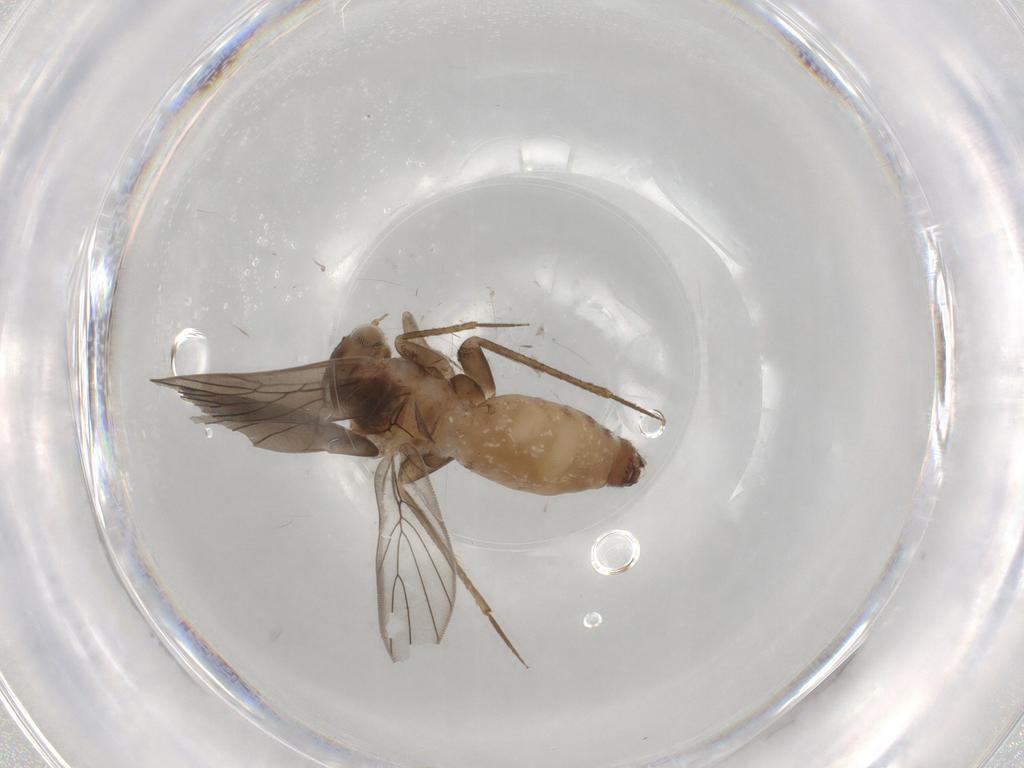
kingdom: Animalia
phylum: Arthropoda
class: Insecta
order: Psocodea
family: Lepidopsocidae
